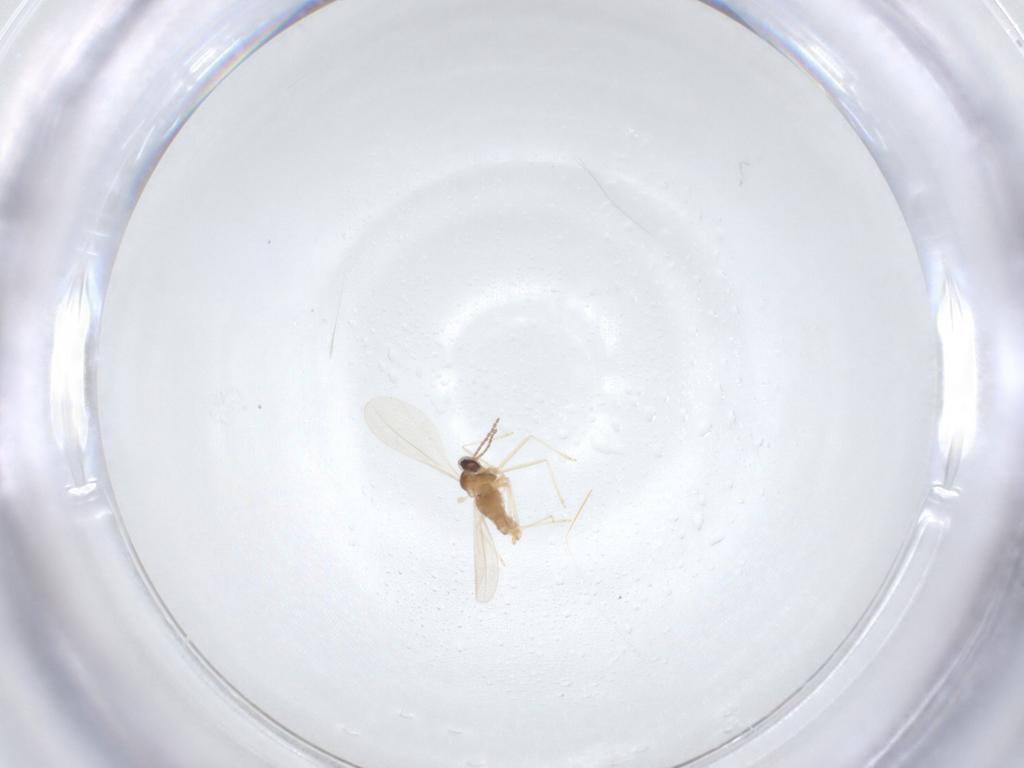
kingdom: Animalia
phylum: Arthropoda
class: Insecta
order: Diptera
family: Cecidomyiidae
